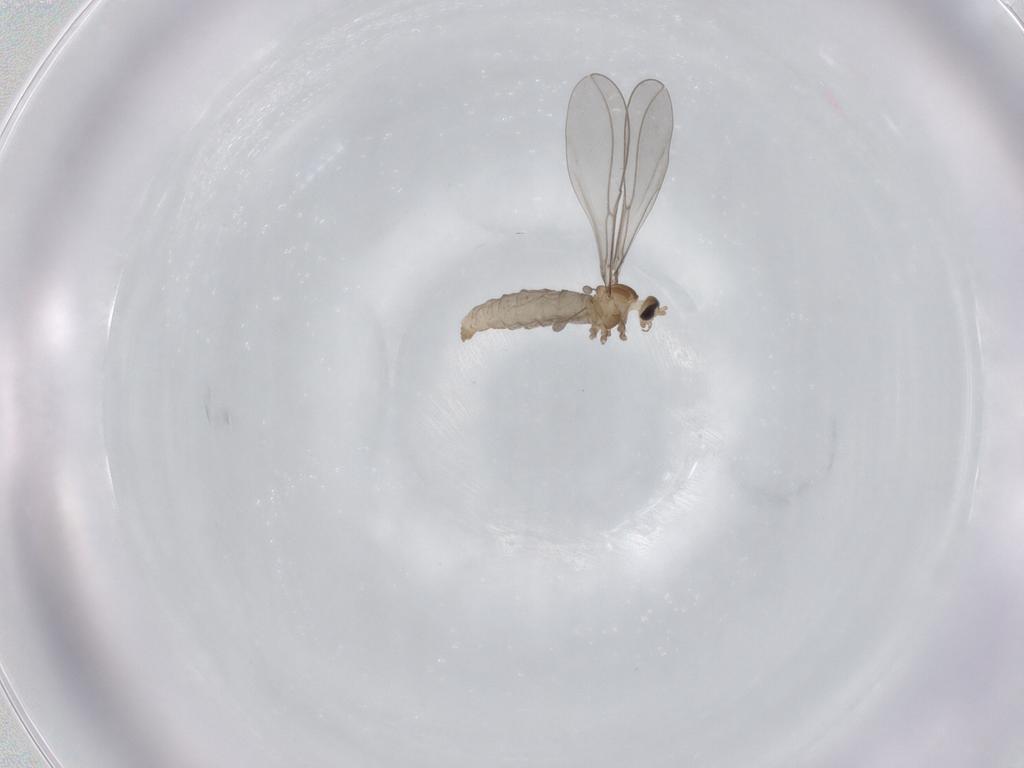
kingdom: Animalia
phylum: Arthropoda
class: Insecta
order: Diptera
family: Cecidomyiidae
